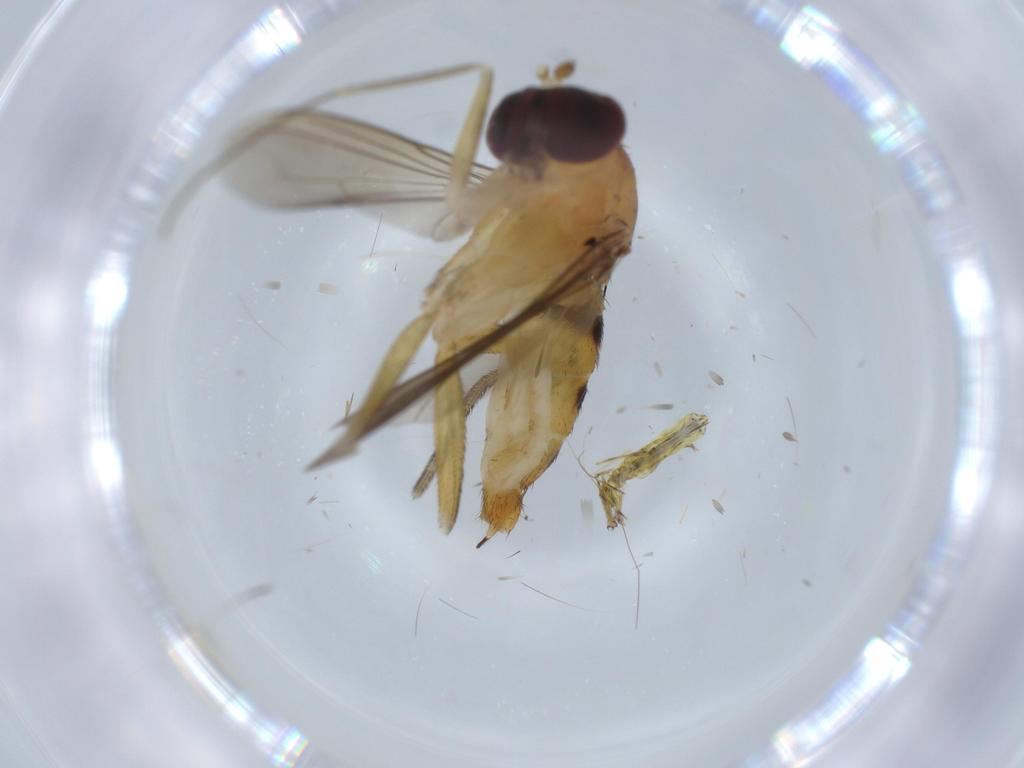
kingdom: Animalia
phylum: Arthropoda
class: Insecta
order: Diptera
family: Dolichopodidae
